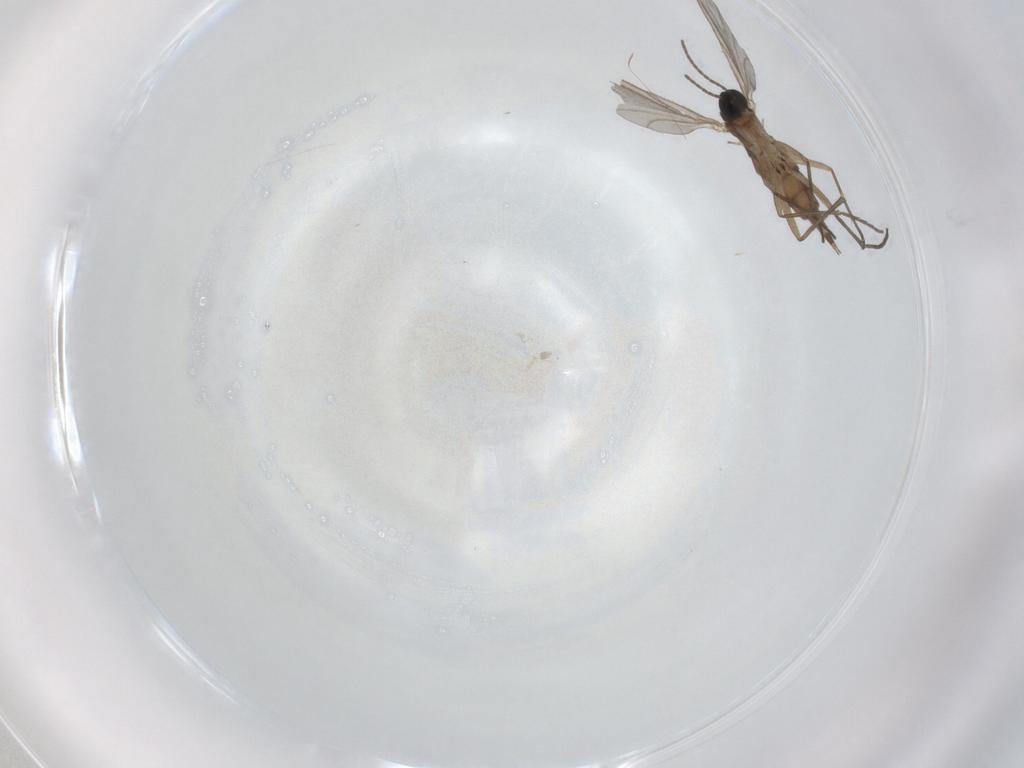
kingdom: Animalia
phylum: Arthropoda
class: Insecta
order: Diptera
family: Sciaridae
